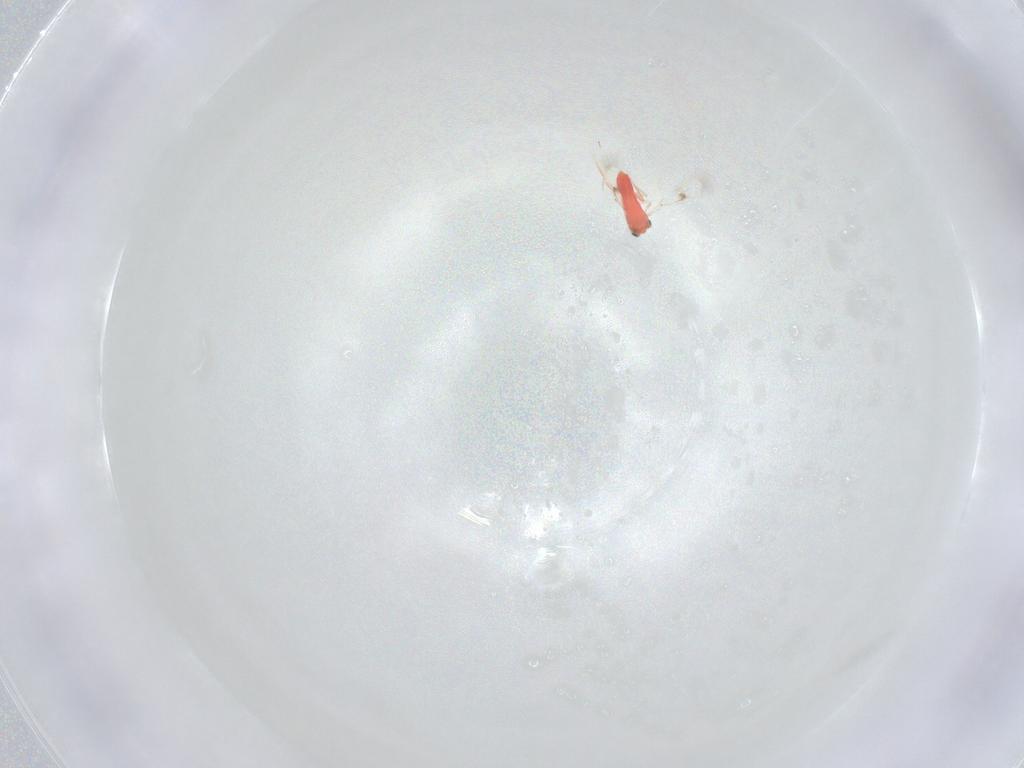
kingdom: Animalia
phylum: Arthropoda
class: Insecta
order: Hymenoptera
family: Trichogrammatidae
